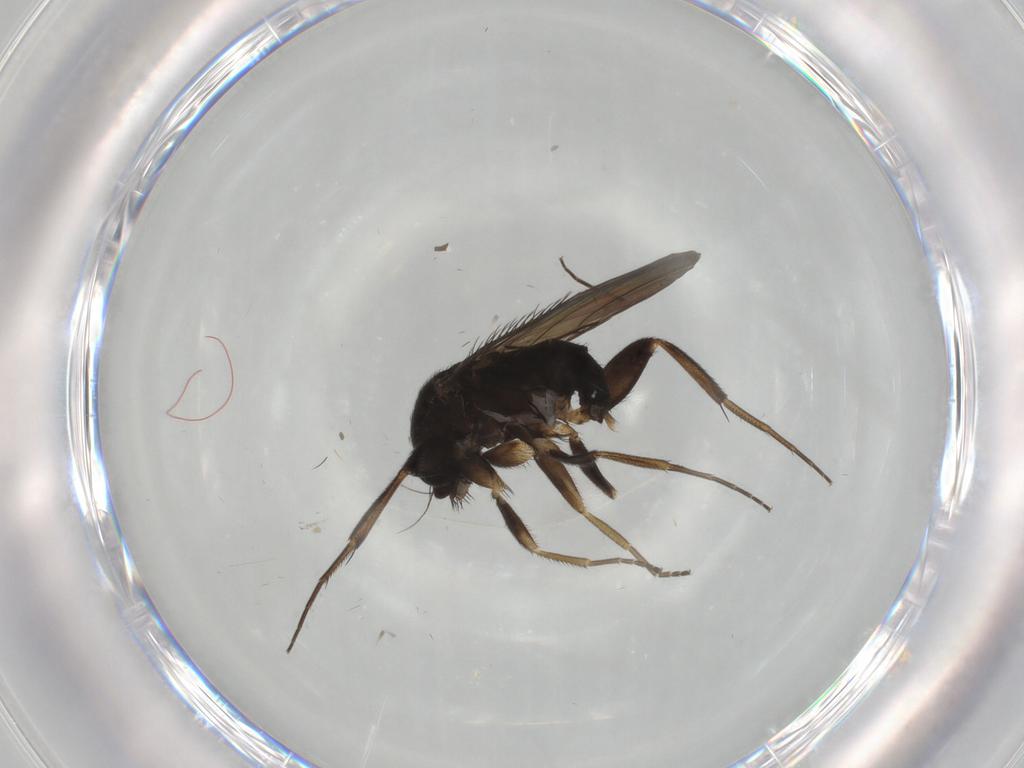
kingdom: Animalia
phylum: Arthropoda
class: Insecta
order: Diptera
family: Phoridae
